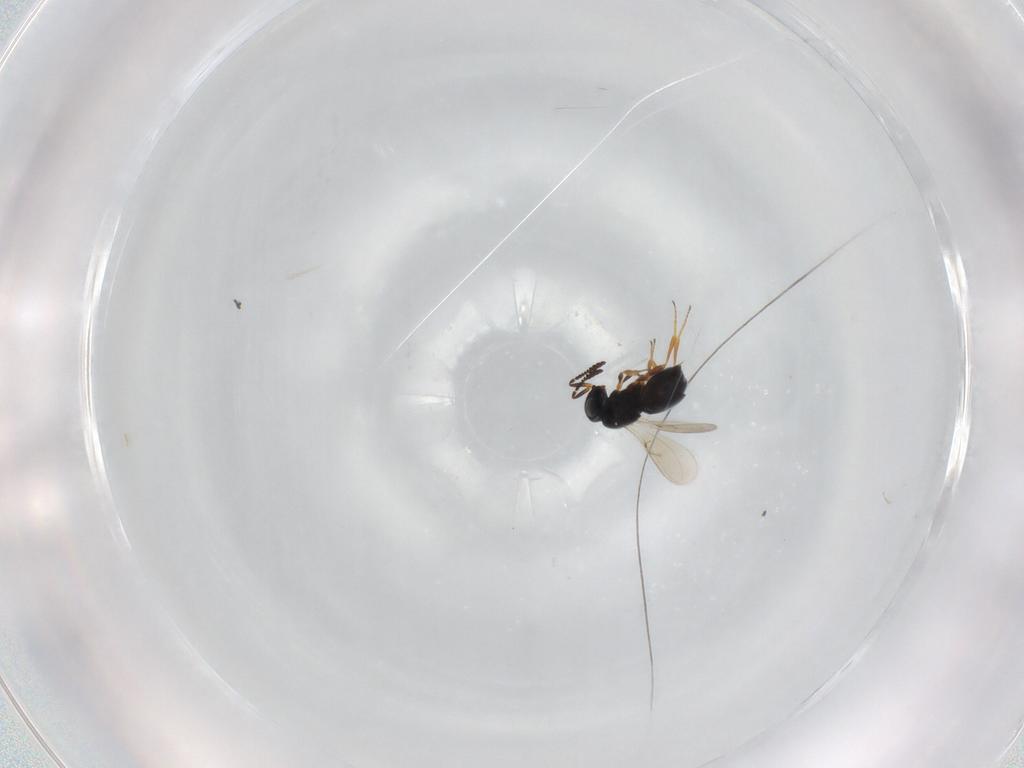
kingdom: Animalia
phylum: Arthropoda
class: Insecta
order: Hymenoptera
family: Scelionidae
